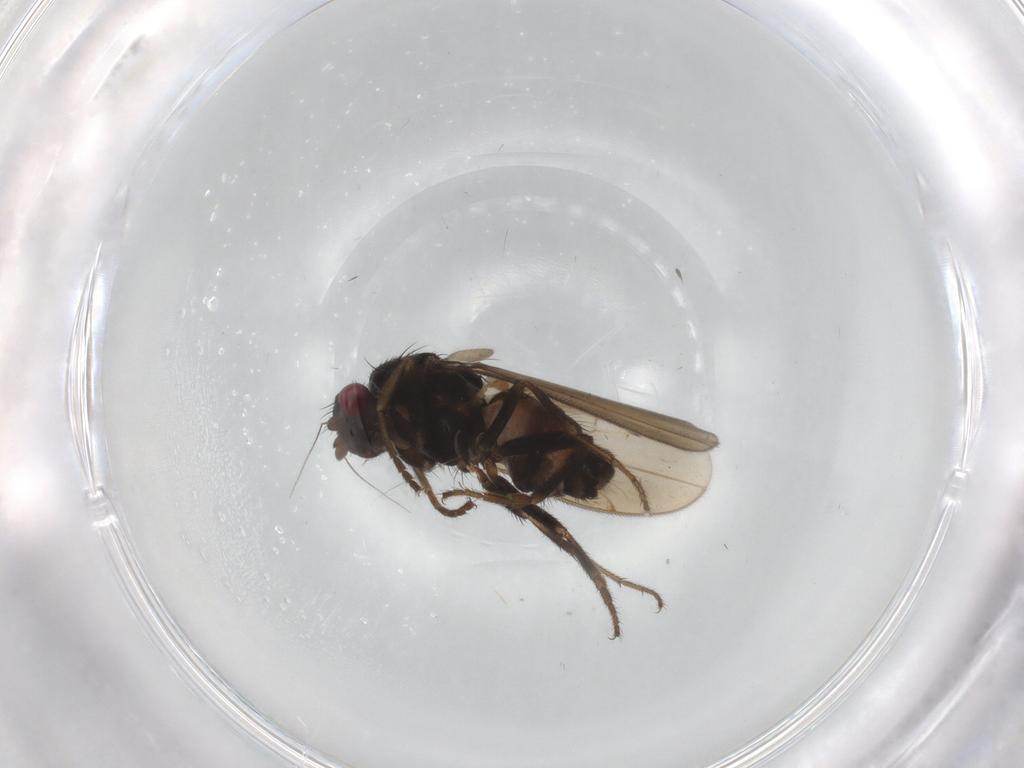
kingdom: Animalia
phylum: Arthropoda
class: Insecta
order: Diptera
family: Sphaeroceridae
